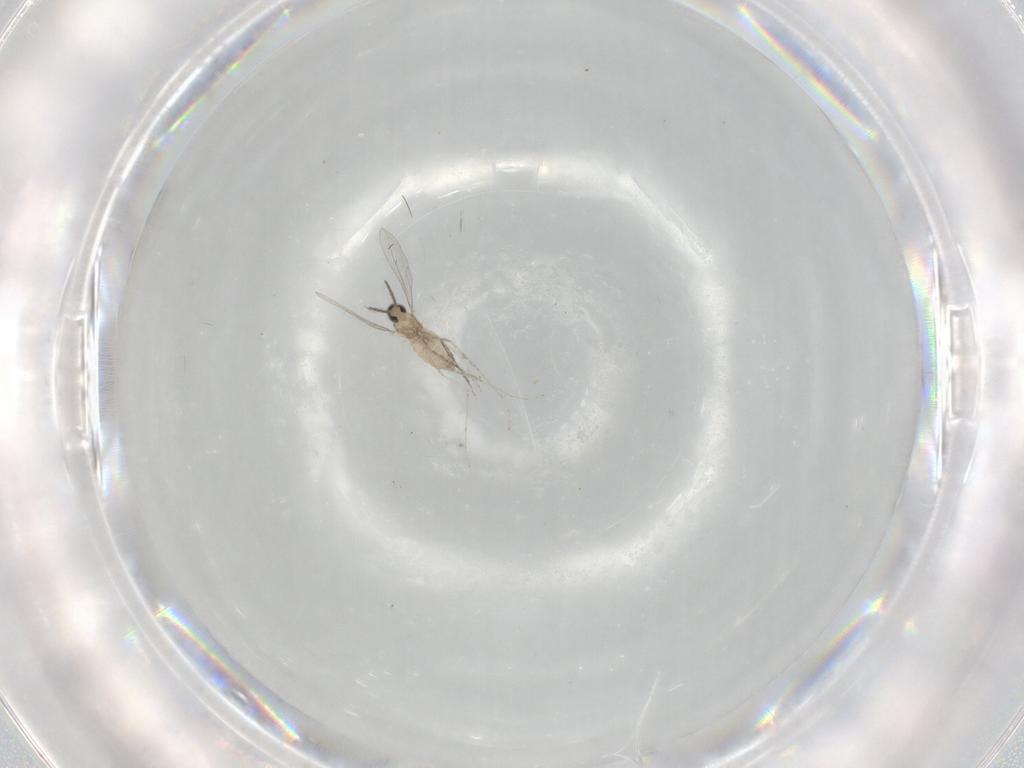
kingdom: Animalia
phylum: Arthropoda
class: Insecta
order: Diptera
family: Cecidomyiidae
